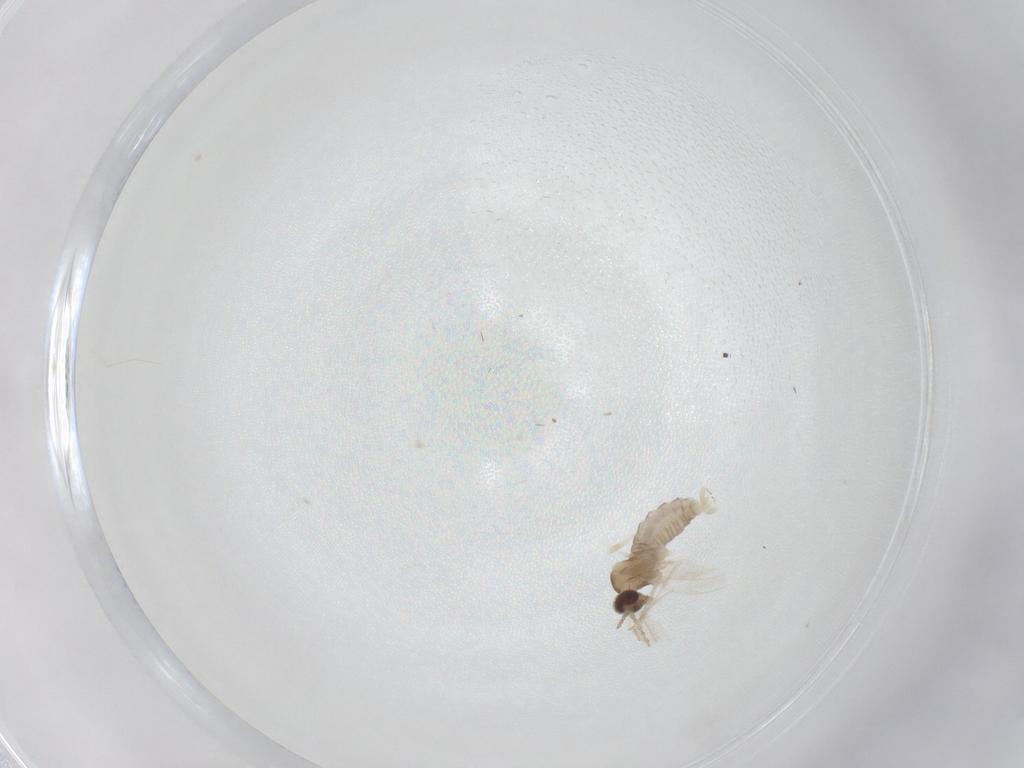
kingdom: Animalia
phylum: Arthropoda
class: Insecta
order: Diptera
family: Cecidomyiidae
